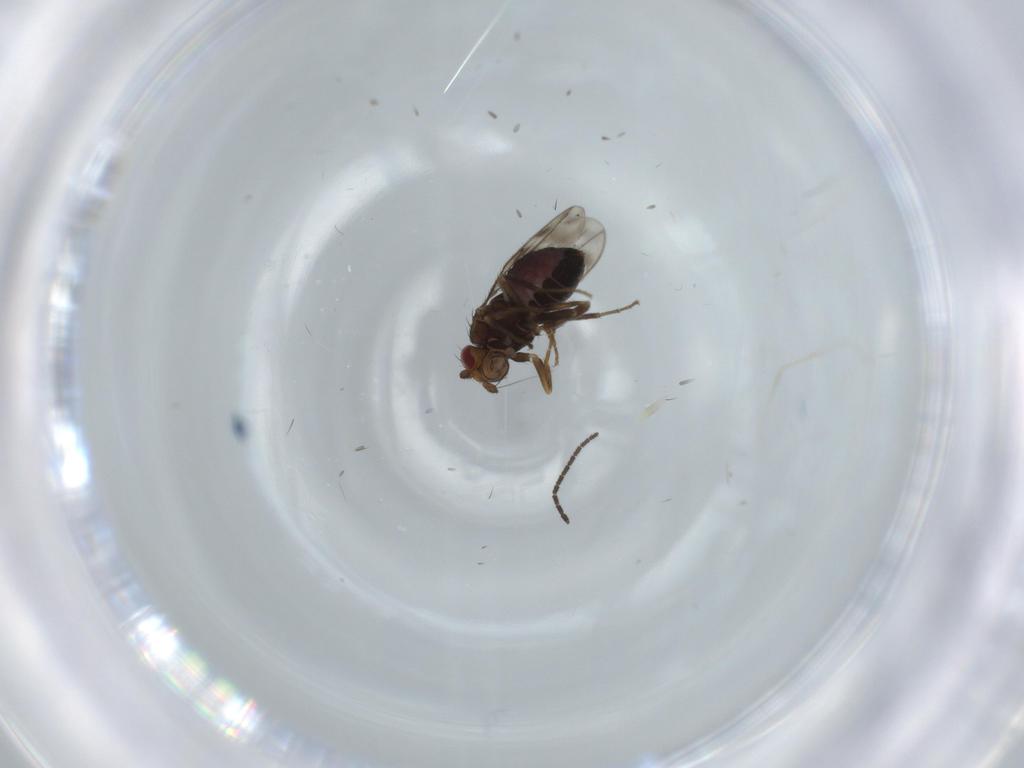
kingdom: Animalia
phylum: Arthropoda
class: Insecta
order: Diptera
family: Sphaeroceridae
